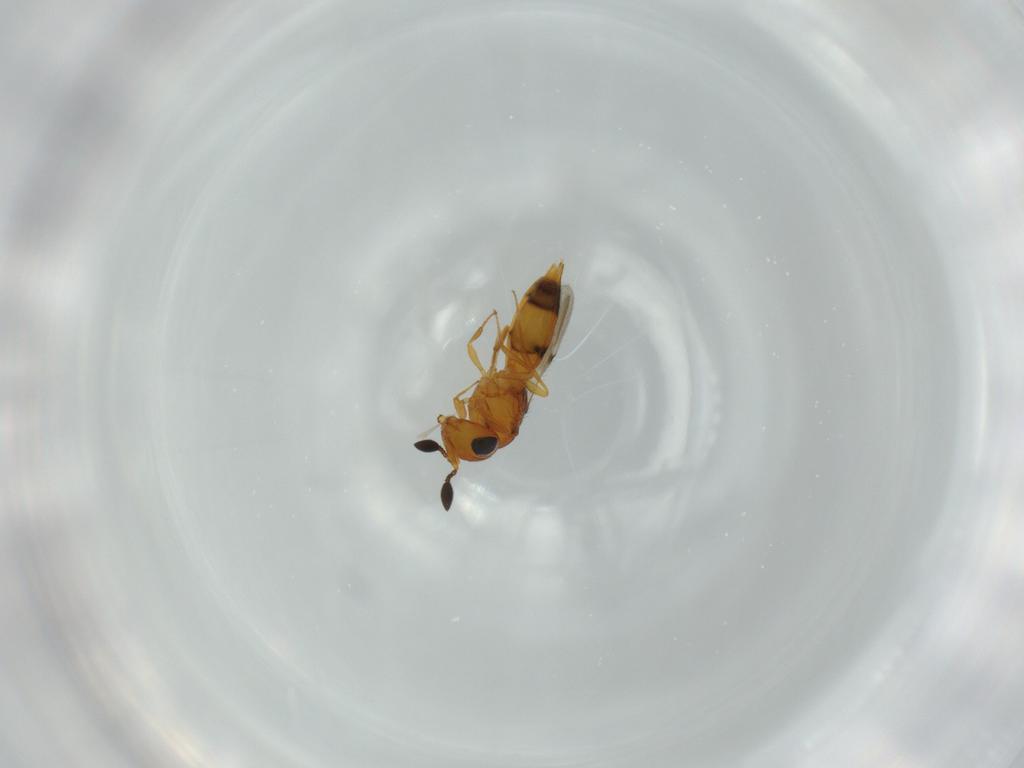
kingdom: Animalia
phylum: Arthropoda
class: Insecta
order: Hymenoptera
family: Scelionidae
